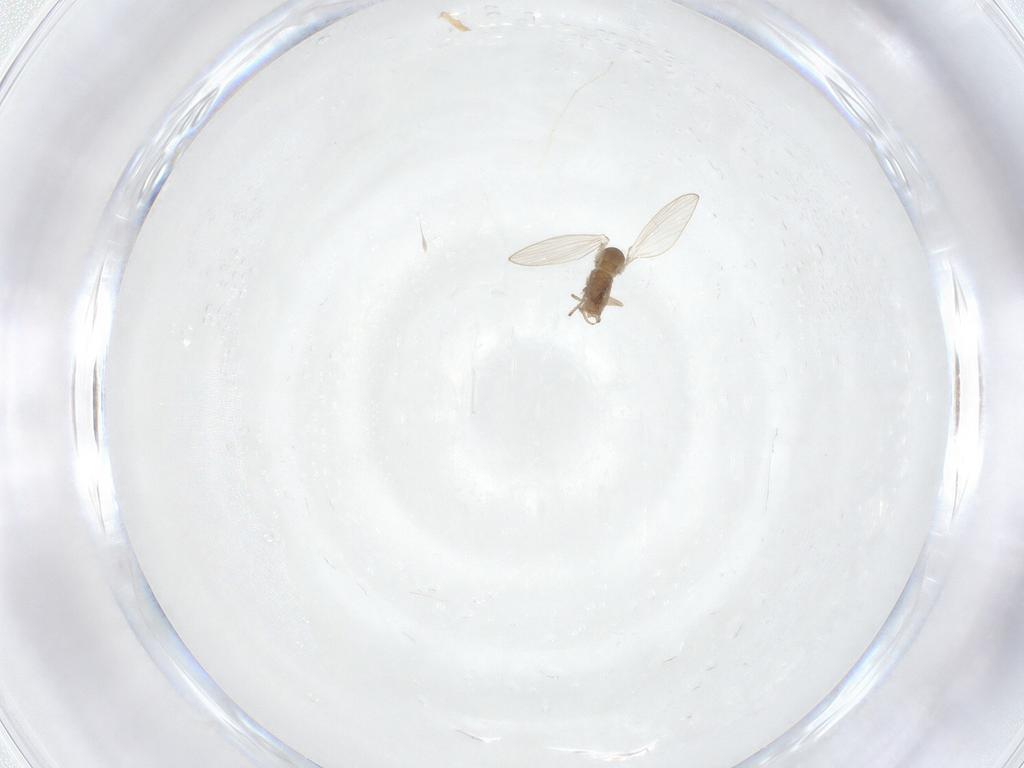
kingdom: Animalia
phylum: Arthropoda
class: Insecta
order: Diptera
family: Psychodidae
